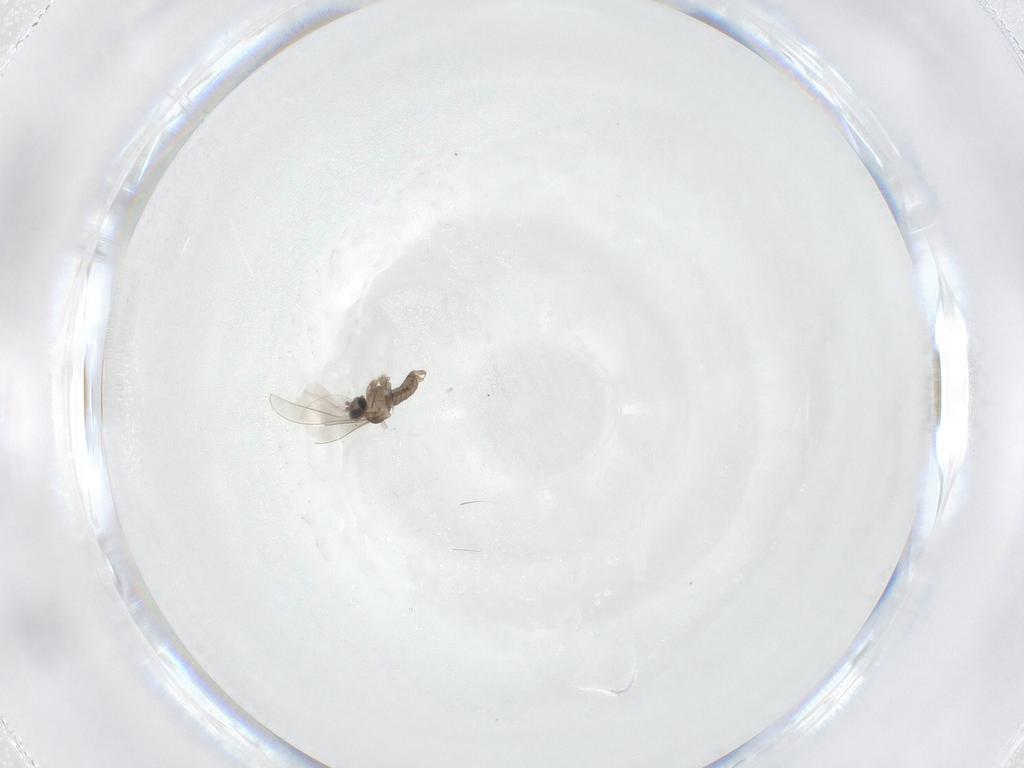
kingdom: Animalia
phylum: Arthropoda
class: Insecta
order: Diptera
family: Cecidomyiidae
